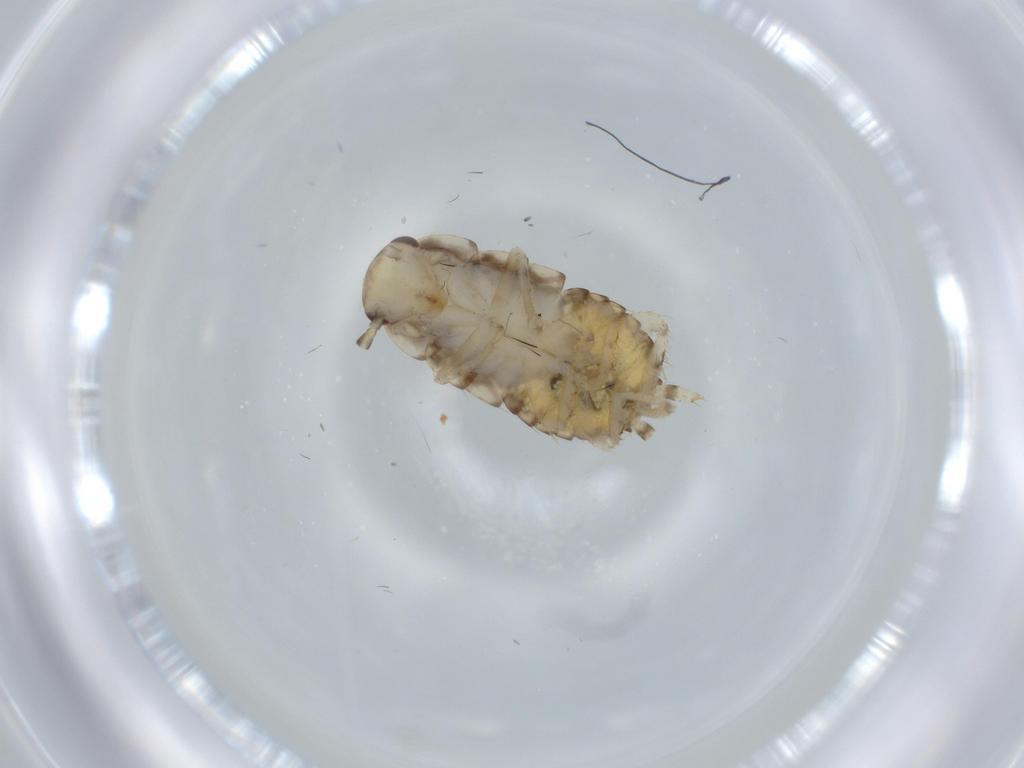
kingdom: Animalia
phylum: Arthropoda
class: Insecta
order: Blattodea
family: Ectobiidae
